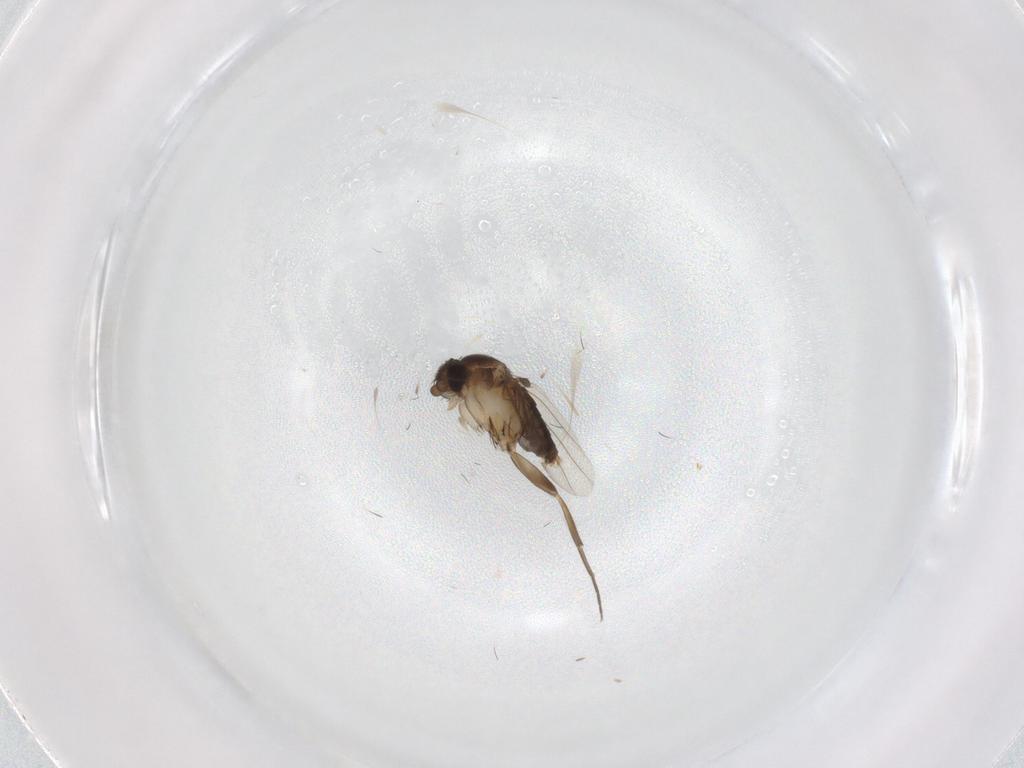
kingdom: Animalia
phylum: Arthropoda
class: Insecta
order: Diptera
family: Phoridae
